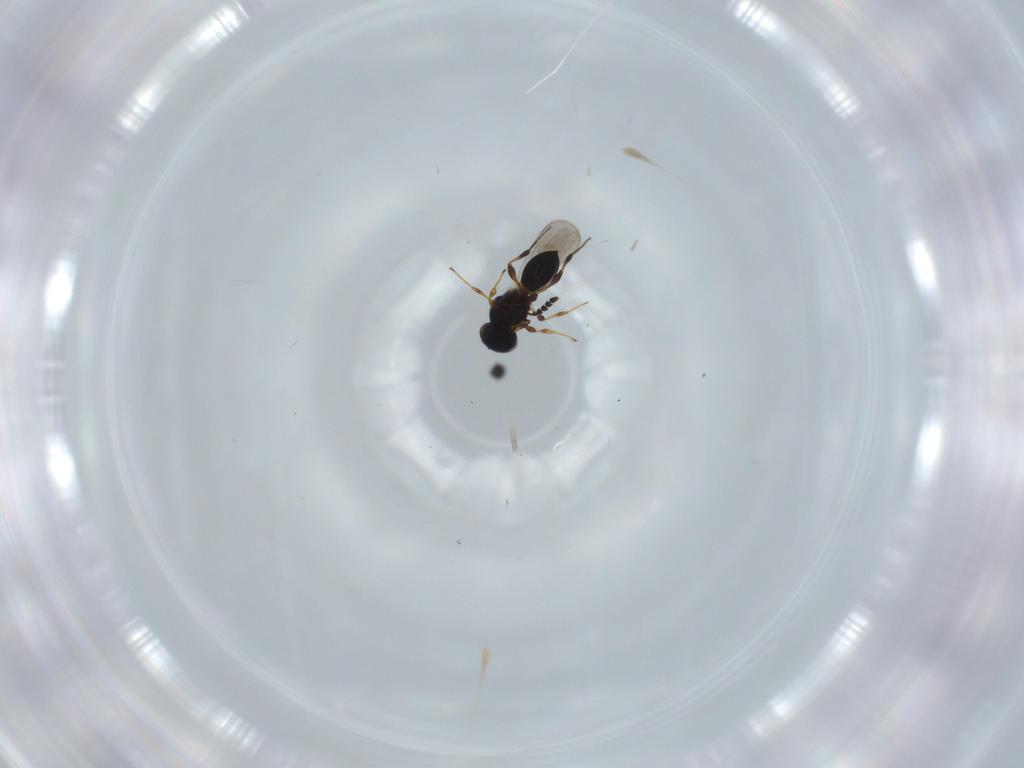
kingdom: Animalia
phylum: Arthropoda
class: Insecta
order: Hymenoptera
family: Platygastridae
